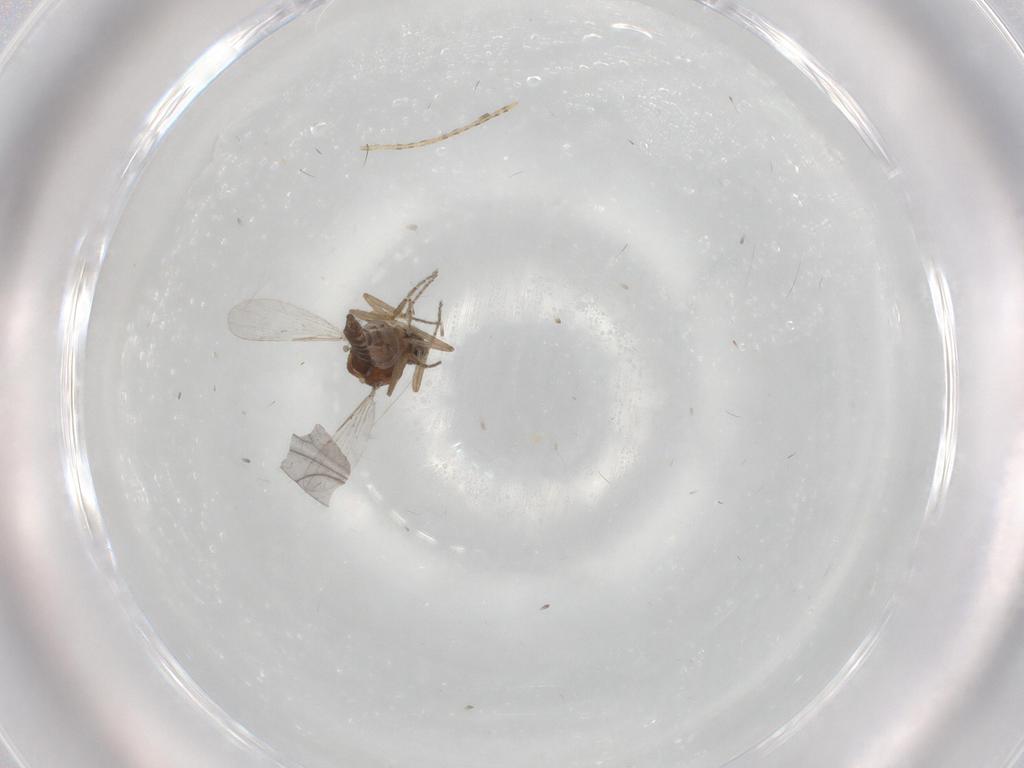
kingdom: Animalia
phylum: Arthropoda
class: Insecta
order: Diptera
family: Ceratopogonidae
